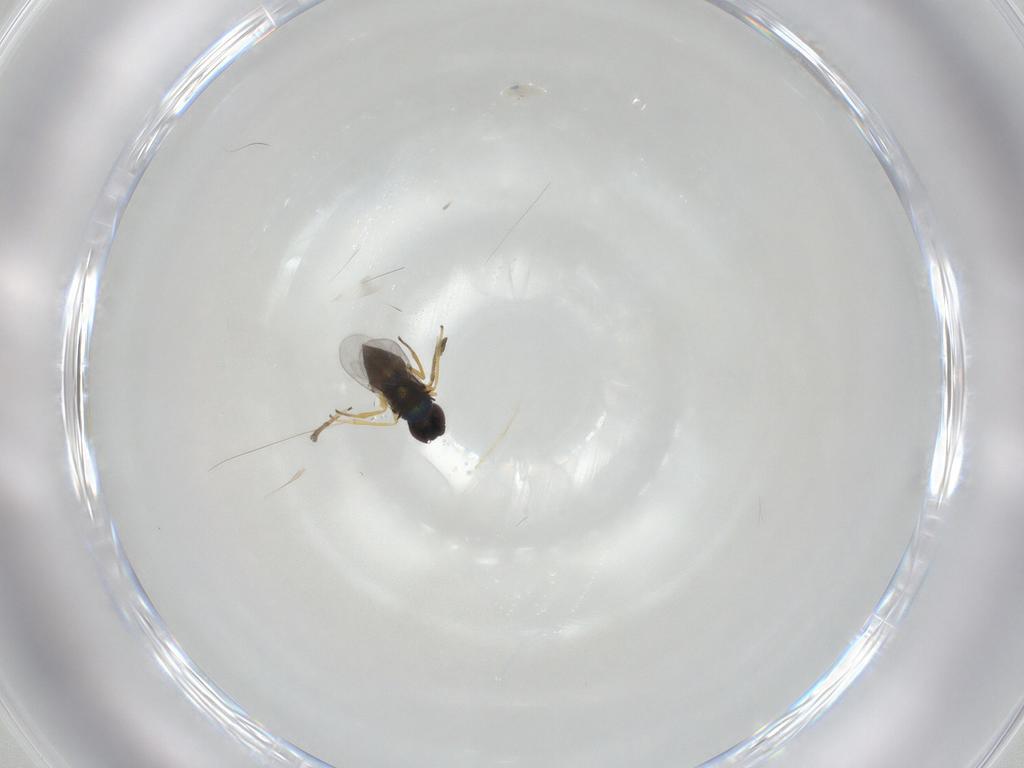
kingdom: Animalia
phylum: Arthropoda
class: Insecta
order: Hymenoptera
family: Encyrtidae
